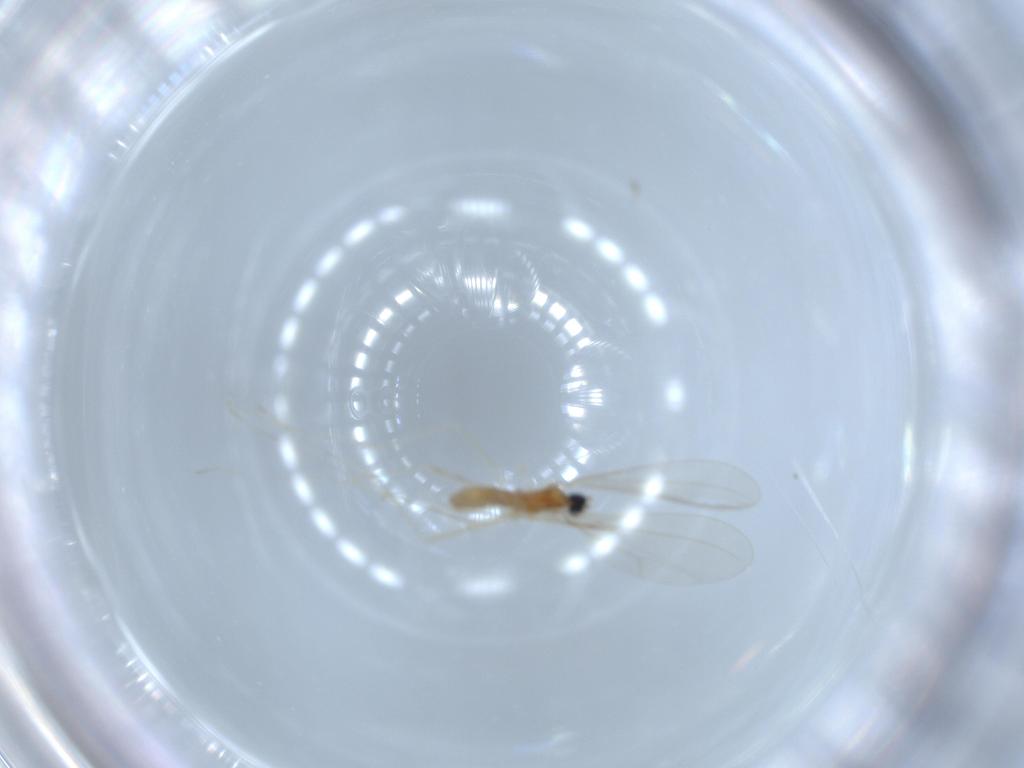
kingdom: Animalia
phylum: Arthropoda
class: Insecta
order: Diptera
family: Cecidomyiidae
